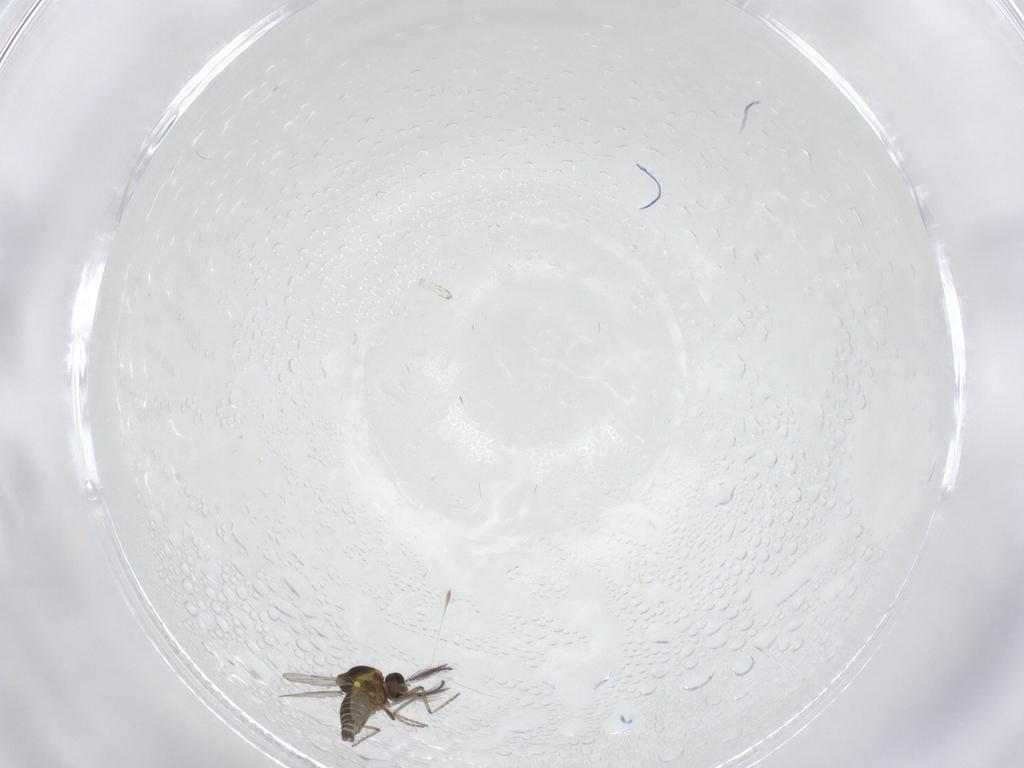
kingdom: Animalia
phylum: Arthropoda
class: Insecta
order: Diptera
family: Ceratopogonidae
